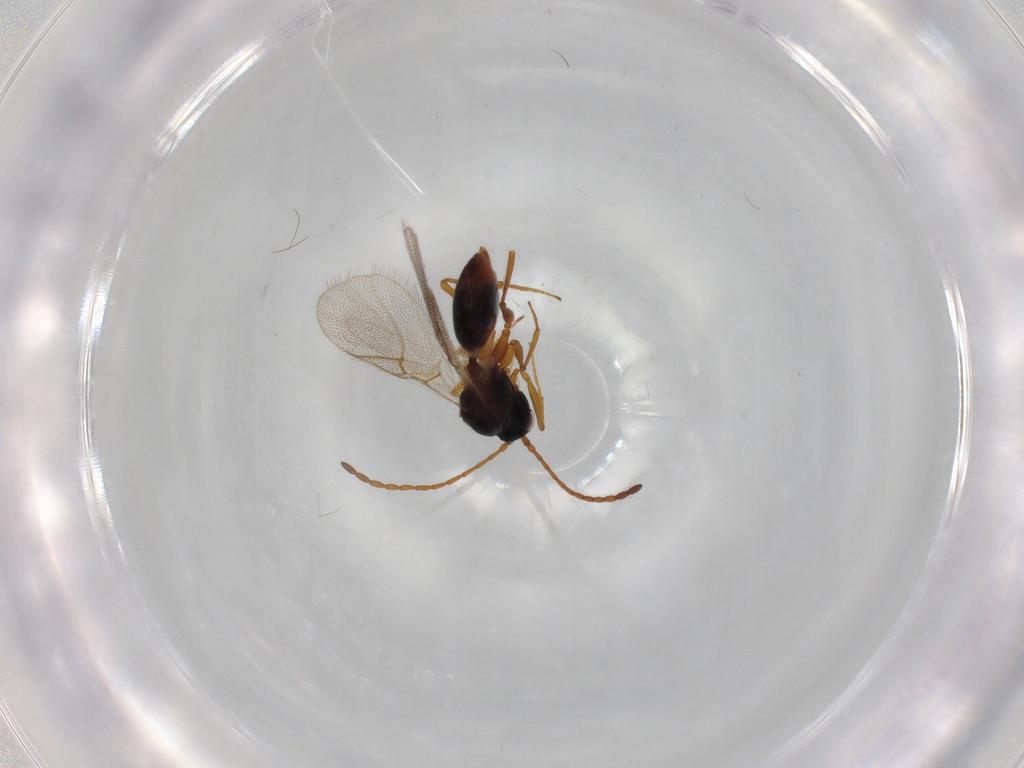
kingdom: Animalia
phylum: Arthropoda
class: Insecta
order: Hymenoptera
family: Figitidae
